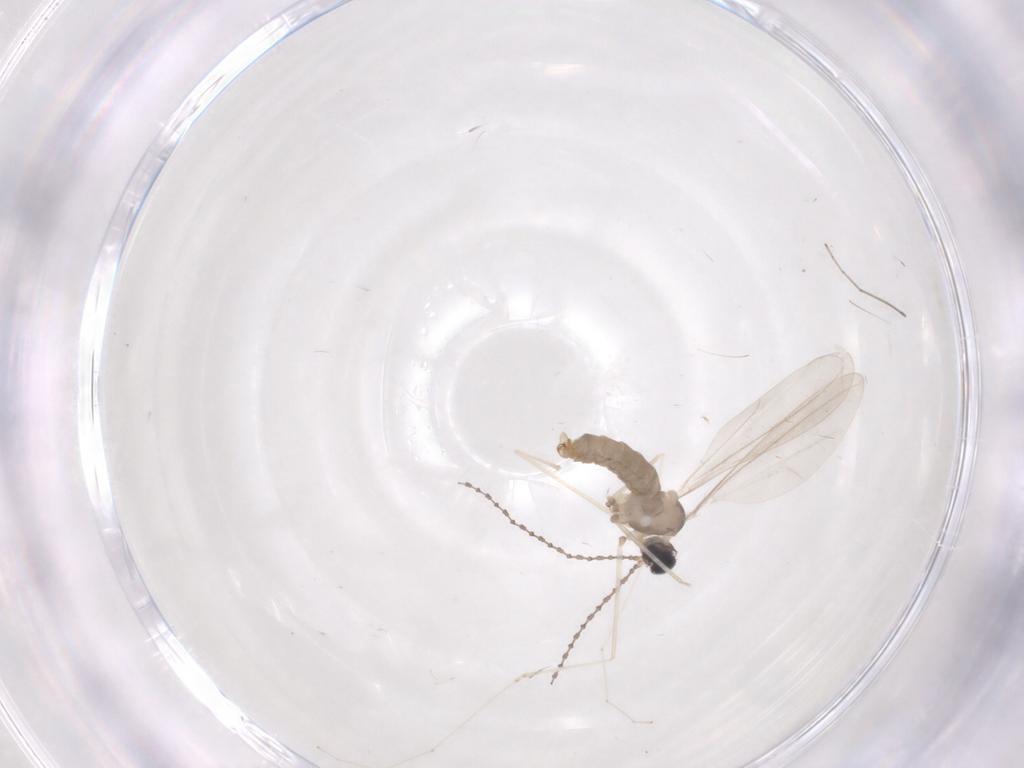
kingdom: Animalia
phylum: Arthropoda
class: Insecta
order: Diptera
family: Cecidomyiidae
